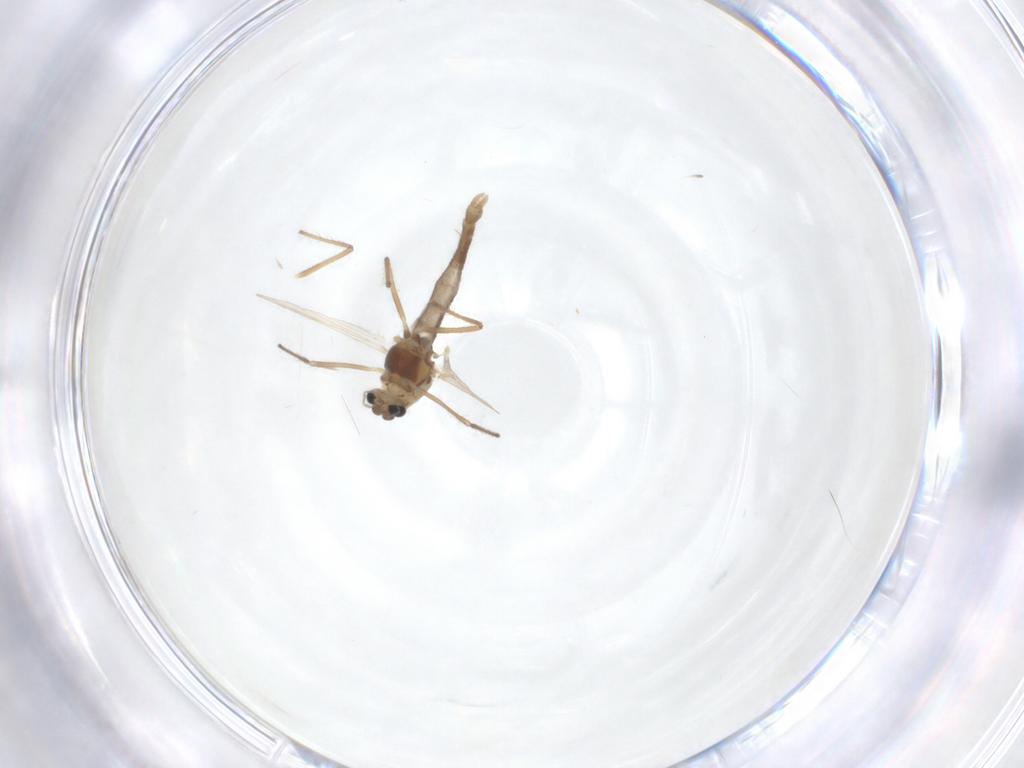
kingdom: Animalia
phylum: Arthropoda
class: Insecta
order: Diptera
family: Chironomidae
